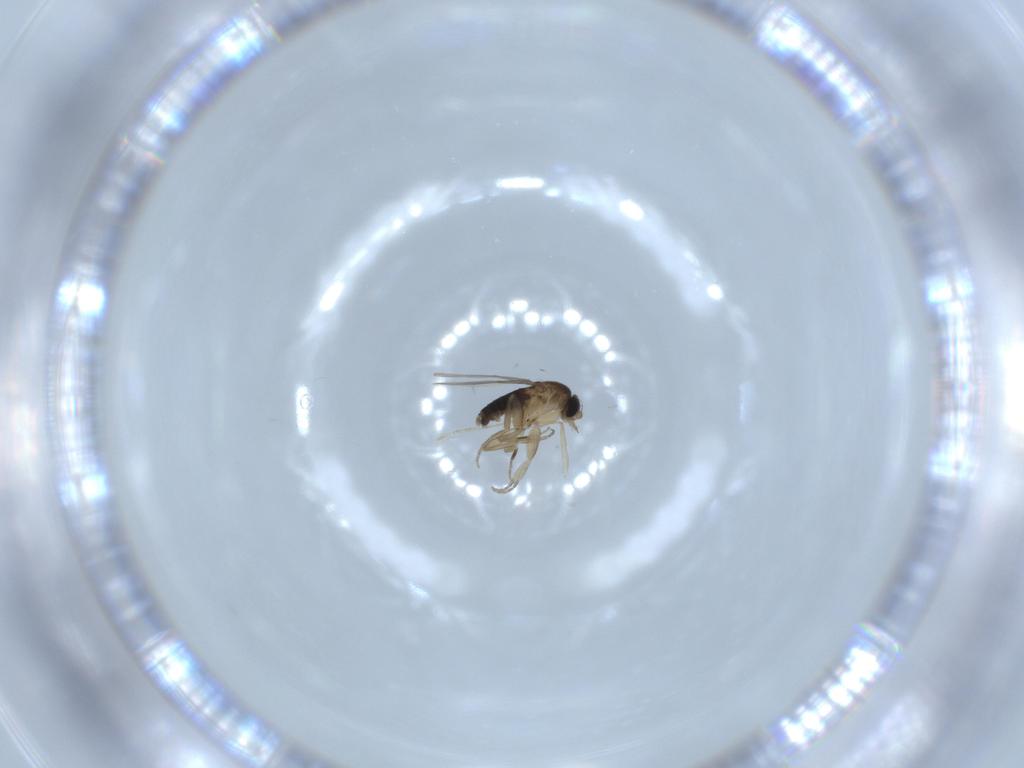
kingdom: Animalia
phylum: Arthropoda
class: Insecta
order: Diptera
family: Phoridae
